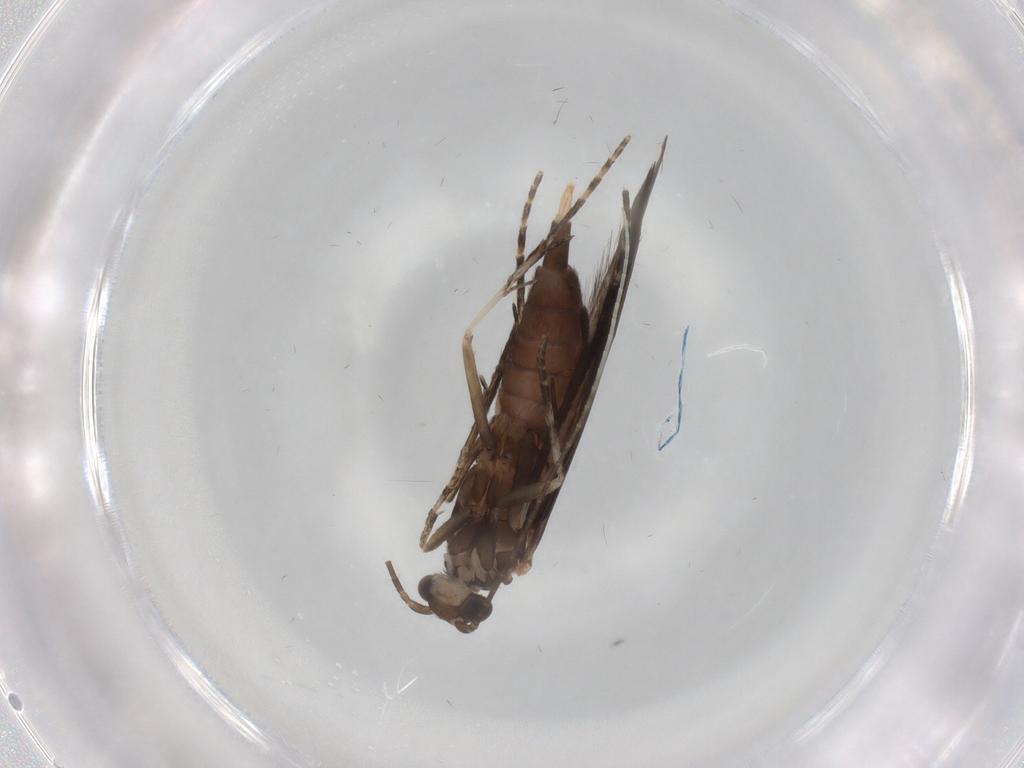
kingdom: Animalia
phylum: Arthropoda
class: Insecta
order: Trichoptera
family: Xiphocentronidae
